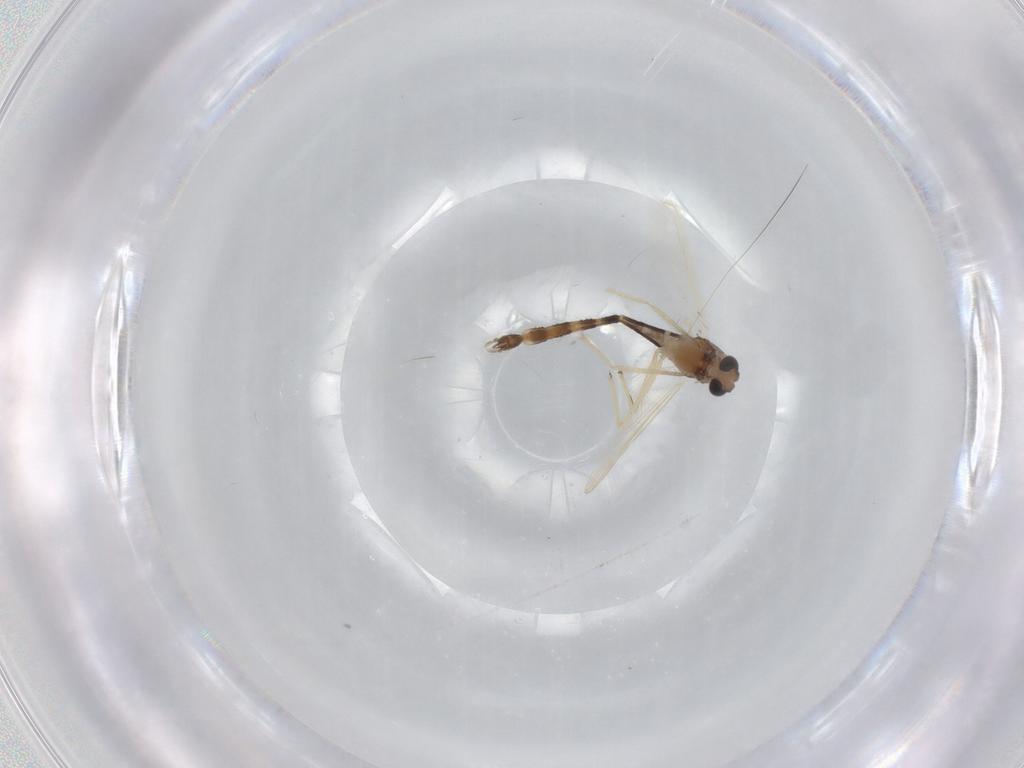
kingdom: Animalia
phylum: Arthropoda
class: Insecta
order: Diptera
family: Chironomidae
